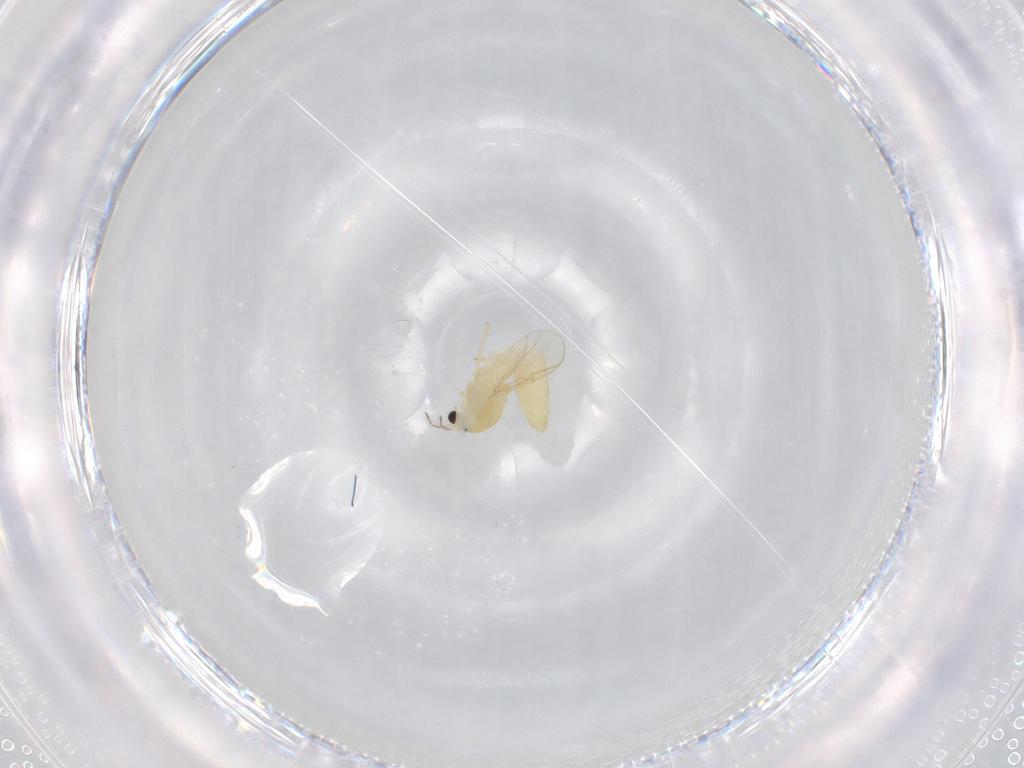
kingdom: Animalia
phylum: Arthropoda
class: Insecta
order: Diptera
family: Chironomidae
